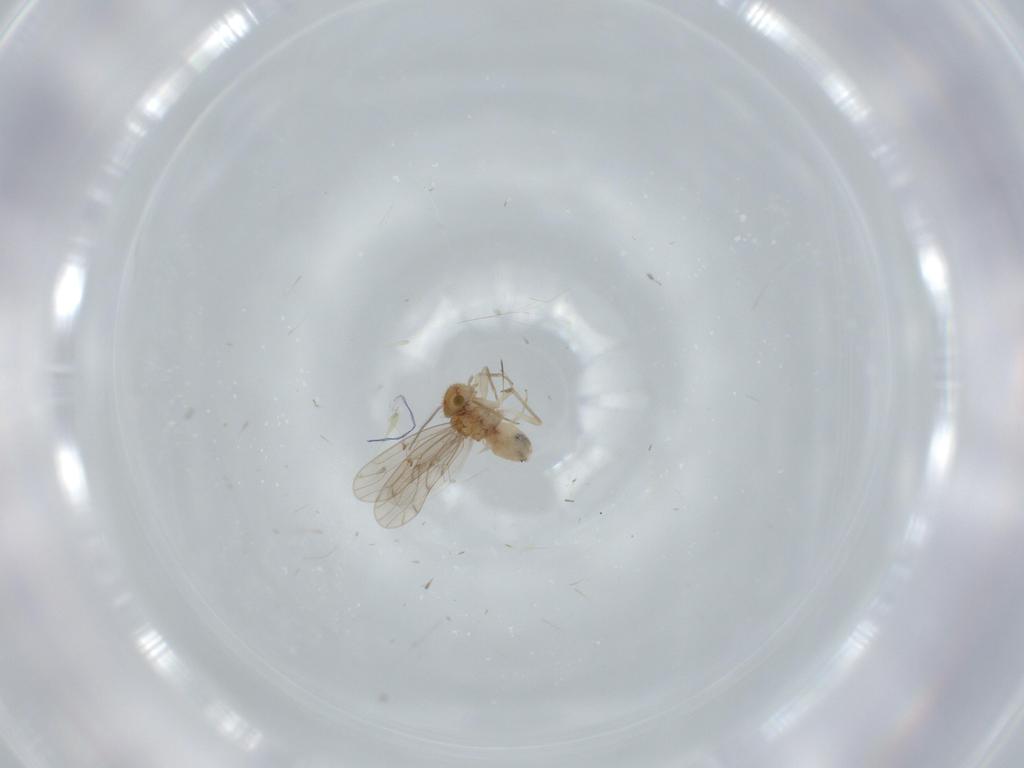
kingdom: Animalia
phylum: Arthropoda
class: Insecta
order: Psocodea
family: Ectopsocidae
